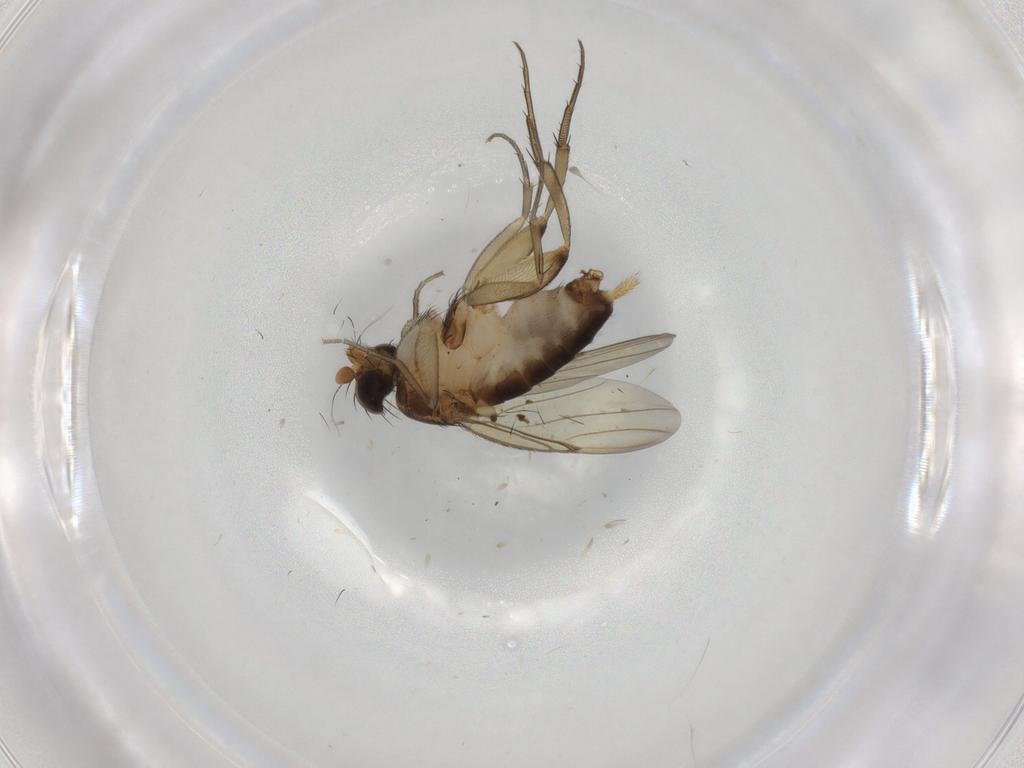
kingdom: Animalia
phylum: Arthropoda
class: Insecta
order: Diptera
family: Phoridae
